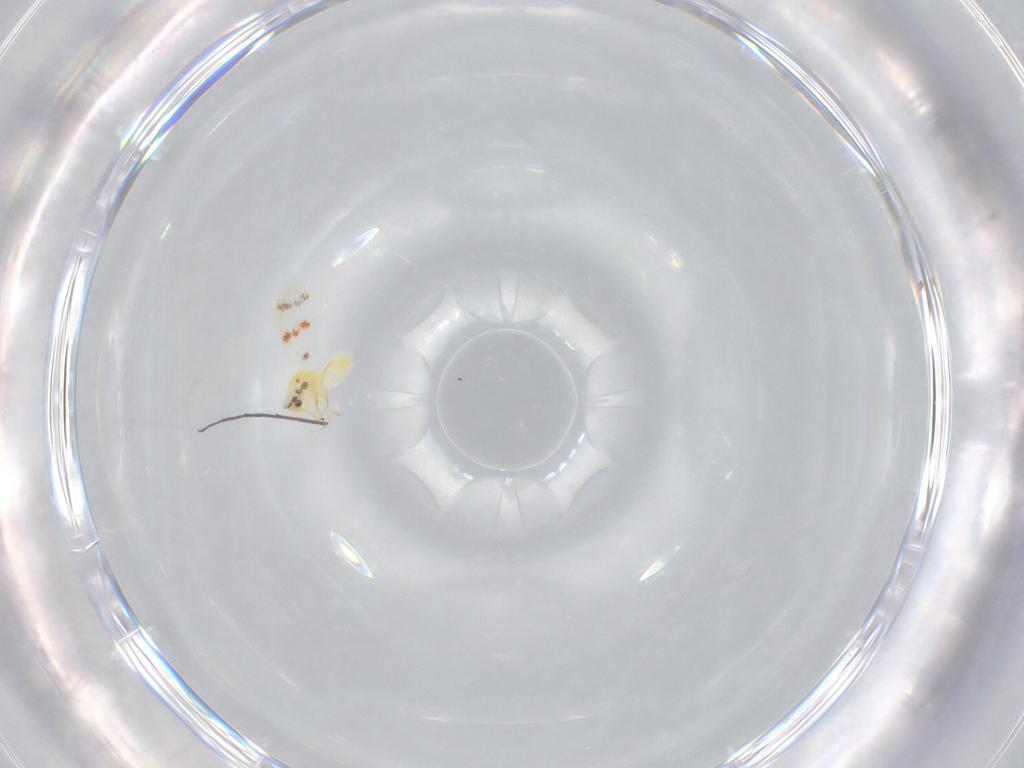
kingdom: Animalia
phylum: Arthropoda
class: Insecta
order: Hemiptera
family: Aleyrodidae
